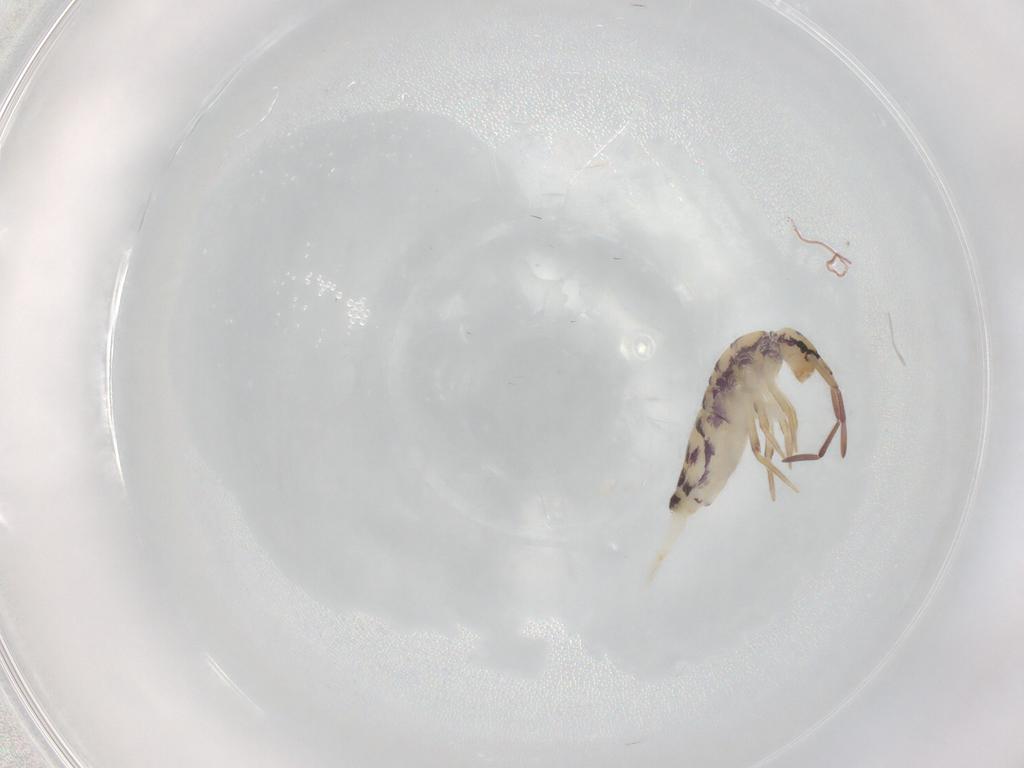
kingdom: Animalia
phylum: Arthropoda
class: Collembola
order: Entomobryomorpha
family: Entomobryidae
